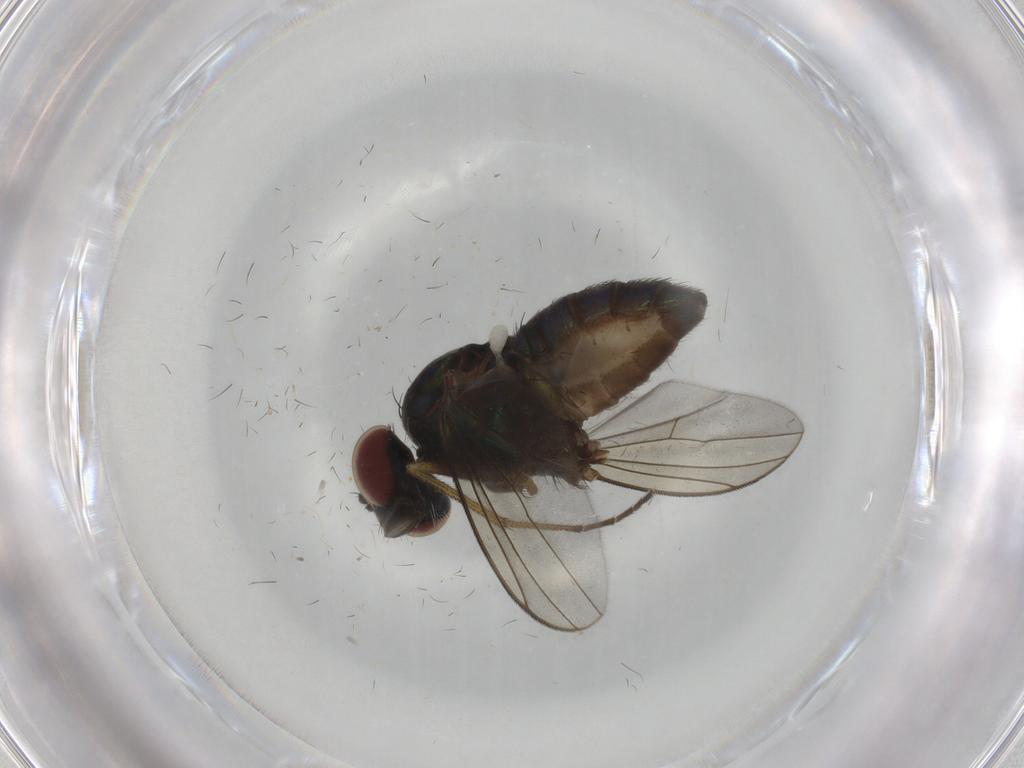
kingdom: Animalia
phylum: Arthropoda
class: Insecta
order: Diptera
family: Dolichopodidae
